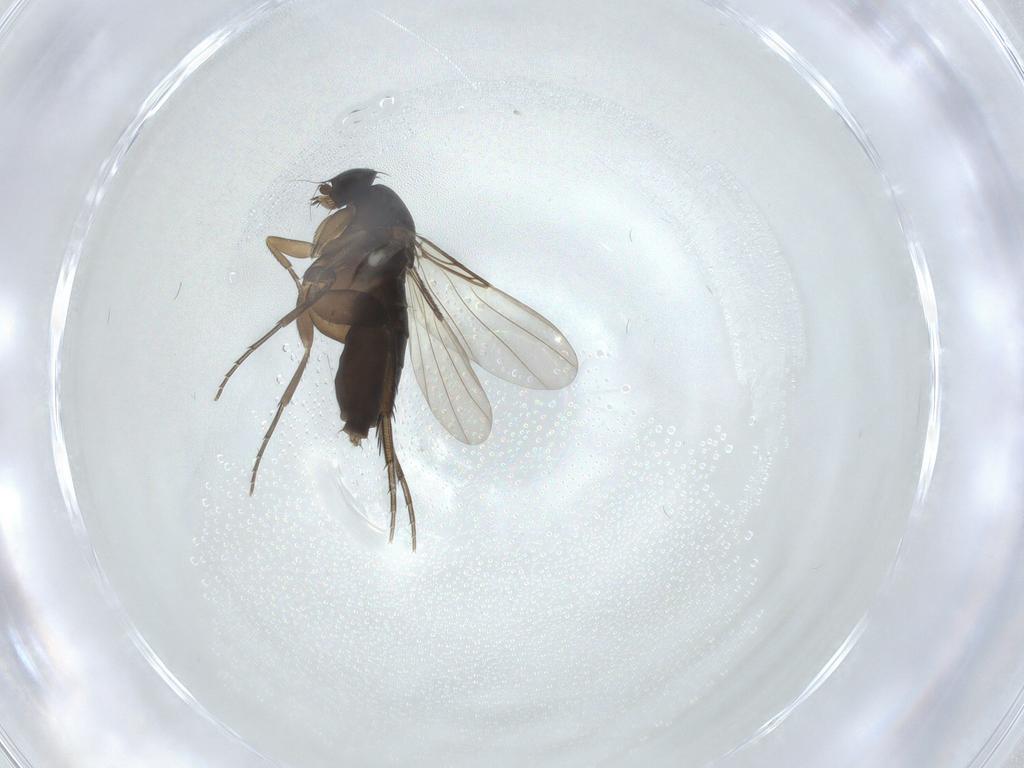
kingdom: Animalia
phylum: Arthropoda
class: Insecta
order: Diptera
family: Phoridae
